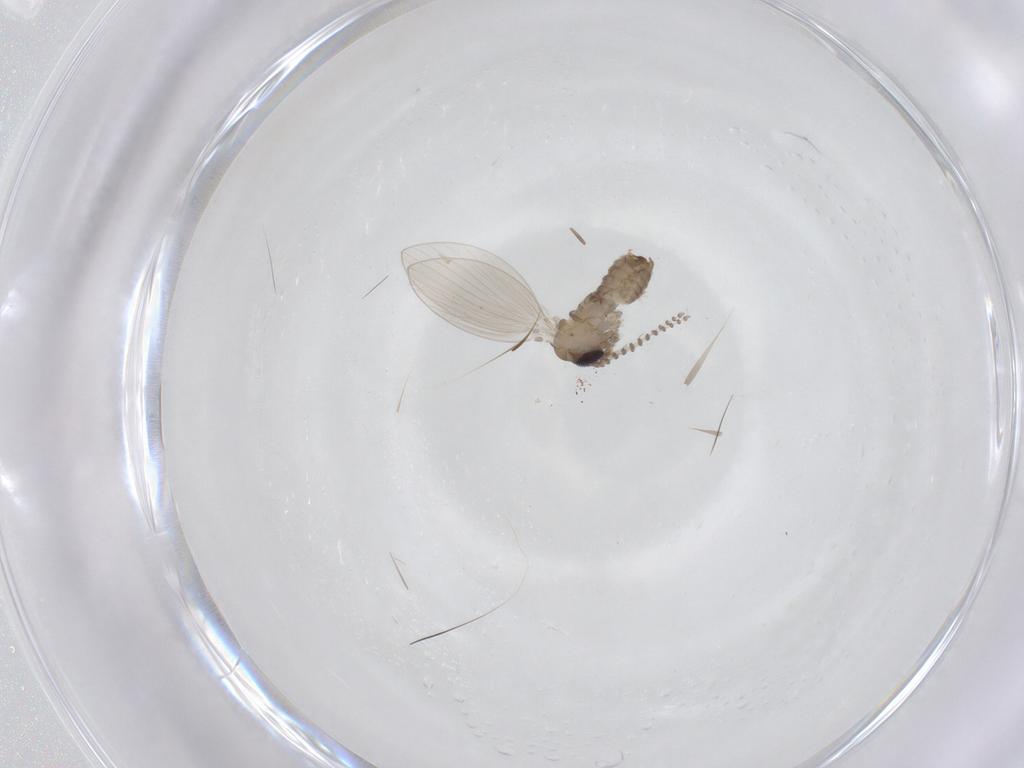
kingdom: Animalia
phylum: Arthropoda
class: Insecta
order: Diptera
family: Psychodidae
